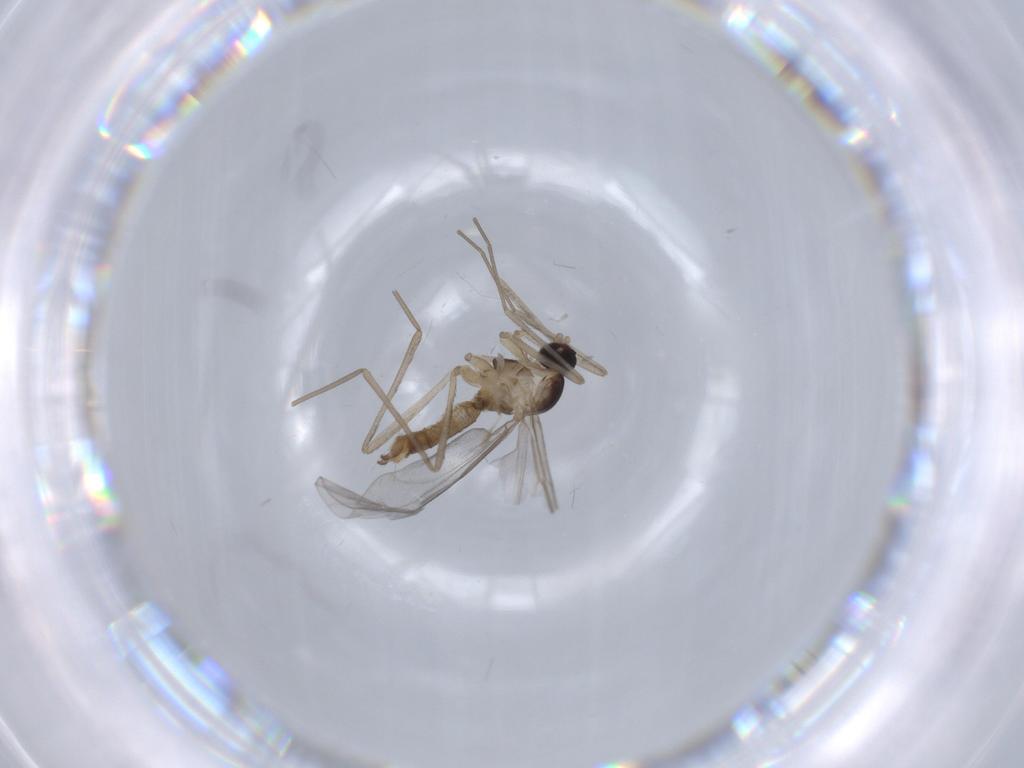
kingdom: Animalia
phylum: Arthropoda
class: Insecta
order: Diptera
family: Cecidomyiidae
